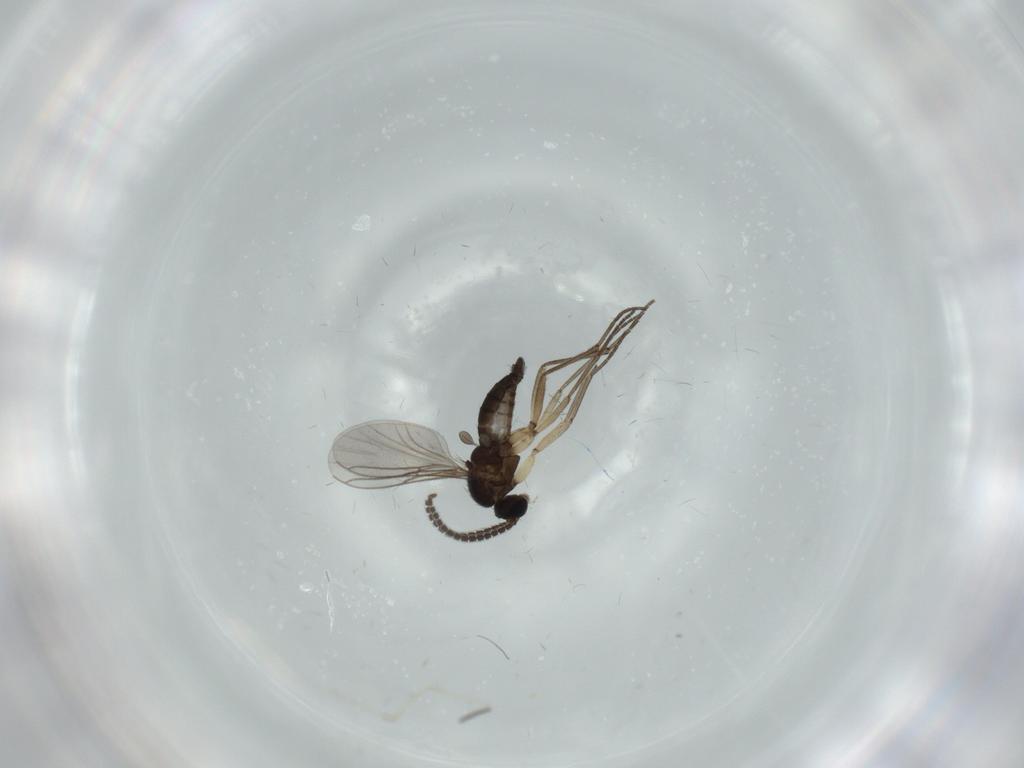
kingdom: Animalia
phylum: Arthropoda
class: Insecta
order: Diptera
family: Sciaridae
